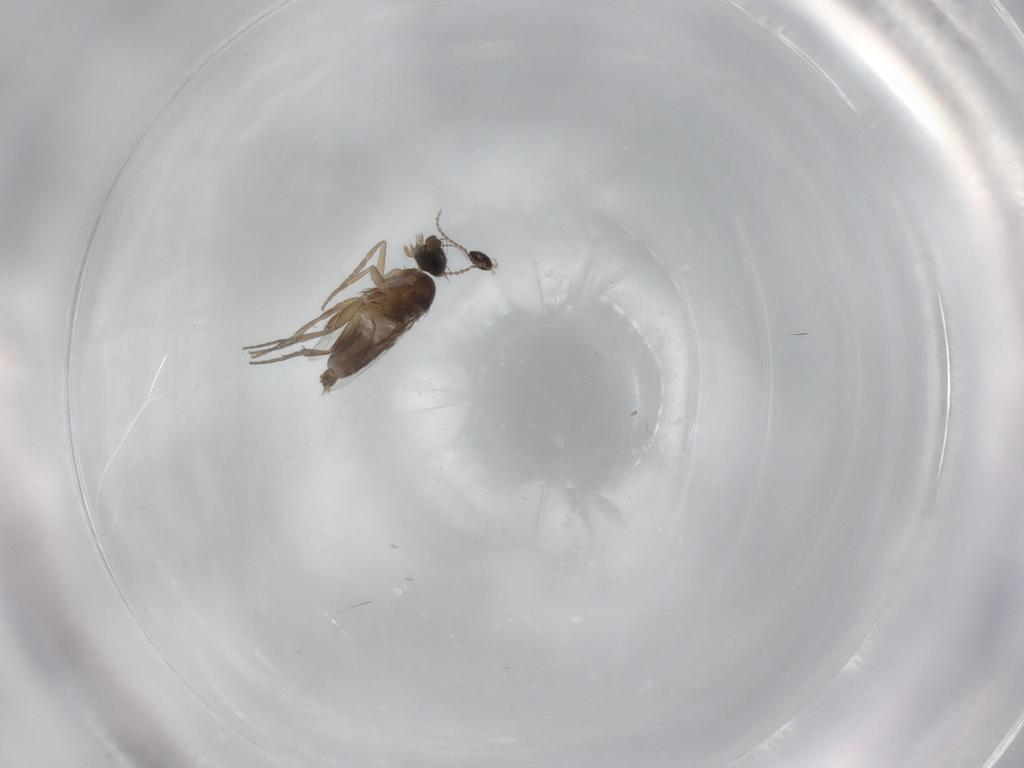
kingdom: Animalia
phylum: Arthropoda
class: Insecta
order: Diptera
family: Phoridae
